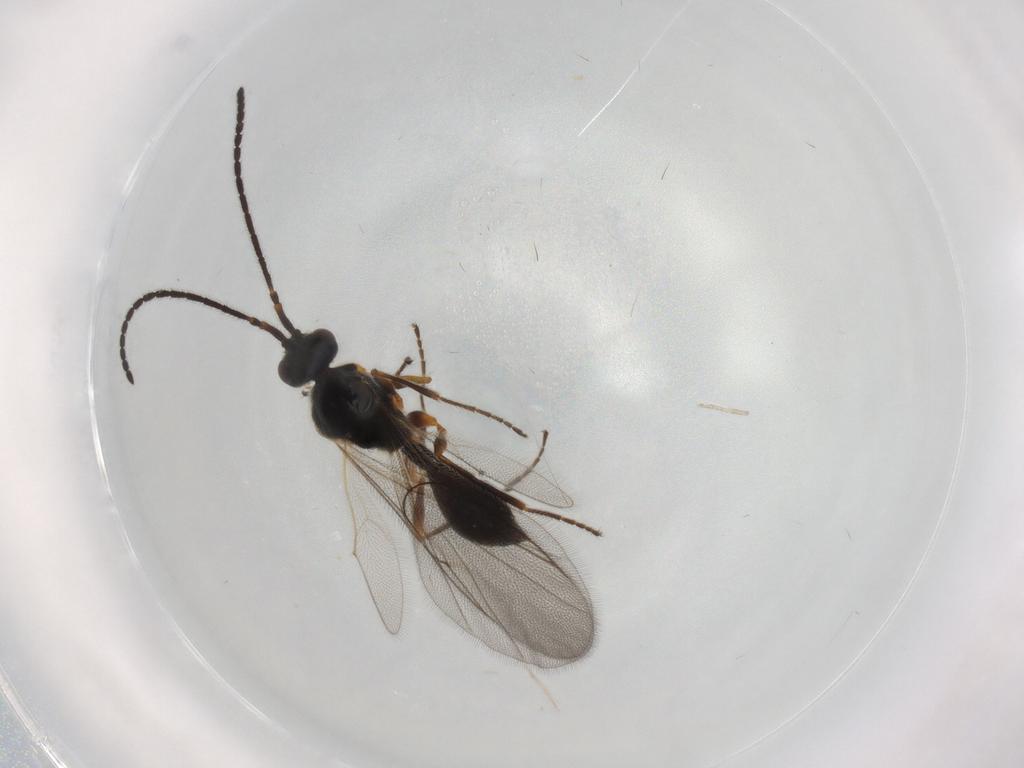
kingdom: Animalia
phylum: Arthropoda
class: Insecta
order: Hymenoptera
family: Diapriidae
